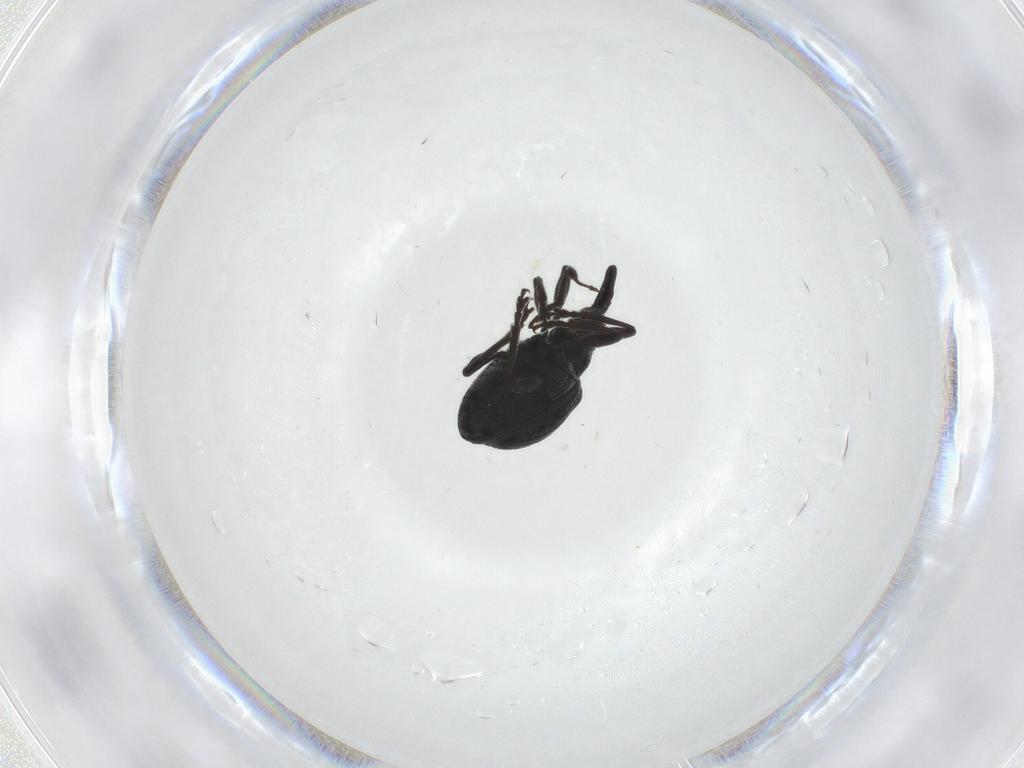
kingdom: Animalia
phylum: Arthropoda
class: Insecta
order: Coleoptera
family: Brentidae
